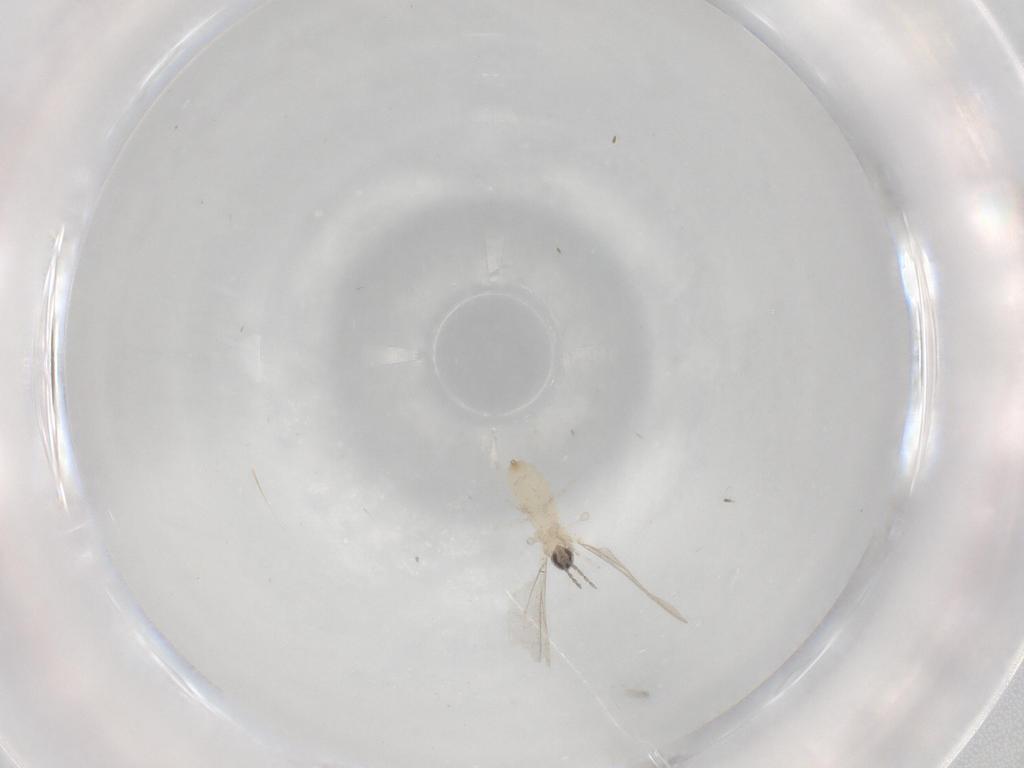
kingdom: Animalia
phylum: Arthropoda
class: Insecta
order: Diptera
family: Cecidomyiidae
